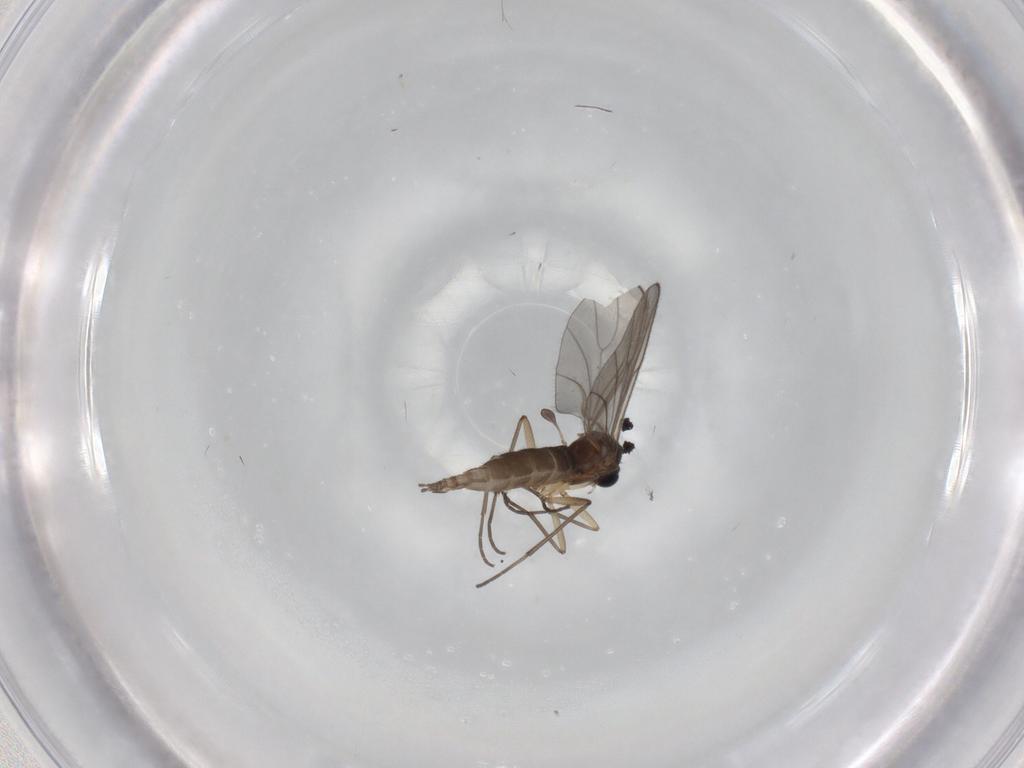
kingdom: Animalia
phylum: Arthropoda
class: Insecta
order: Diptera
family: Sciaridae
